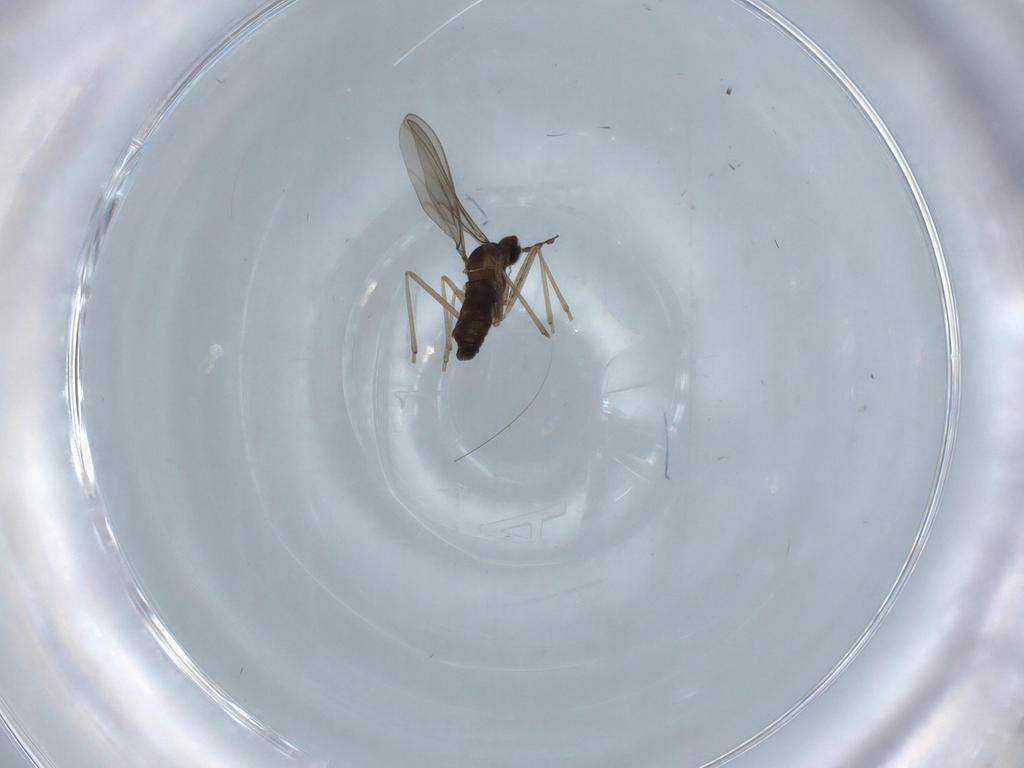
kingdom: Animalia
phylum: Arthropoda
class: Insecta
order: Diptera
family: Cecidomyiidae
